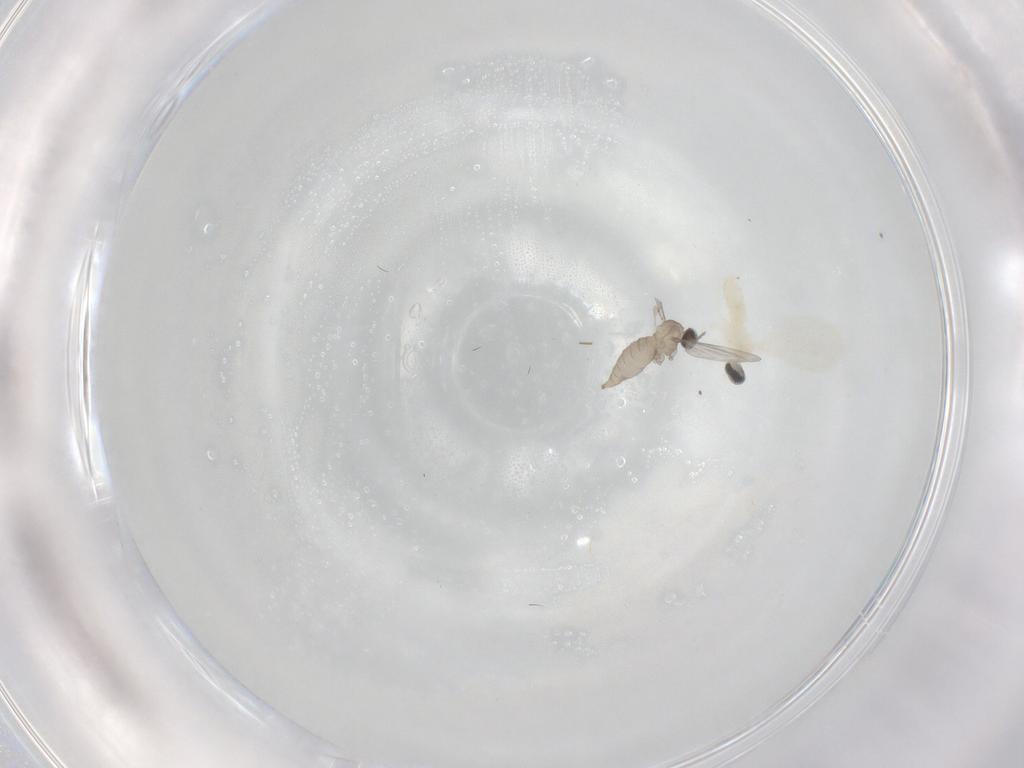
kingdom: Animalia
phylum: Arthropoda
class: Insecta
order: Diptera
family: Cecidomyiidae
